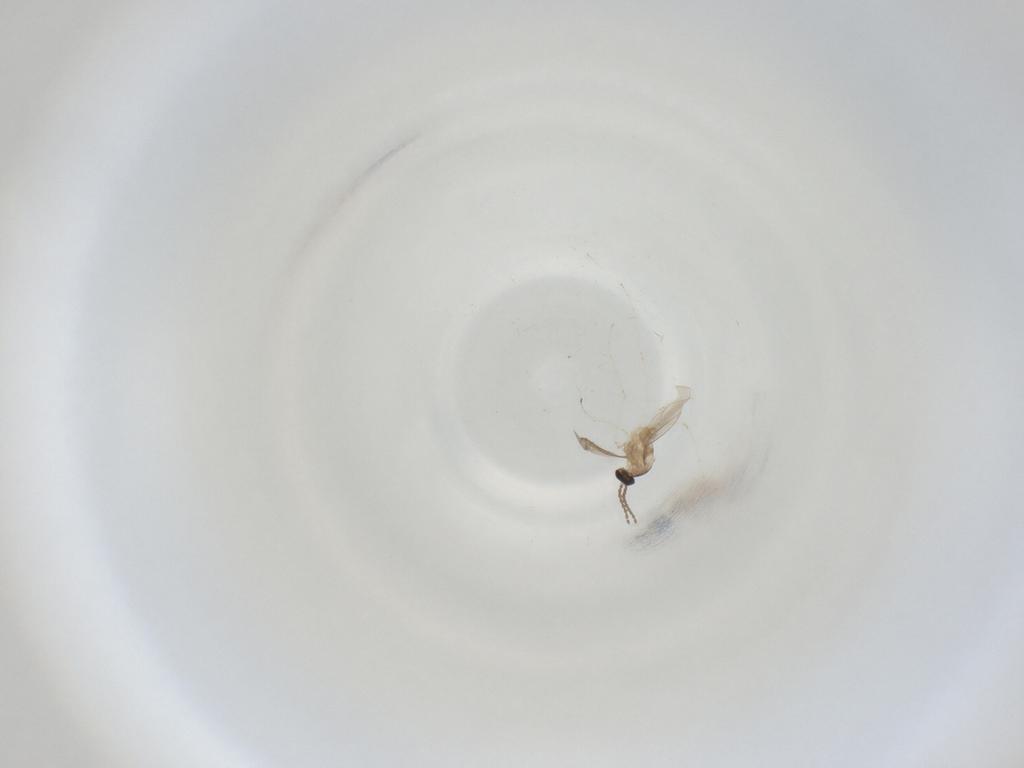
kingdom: Animalia
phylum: Arthropoda
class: Insecta
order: Diptera
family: Cecidomyiidae
